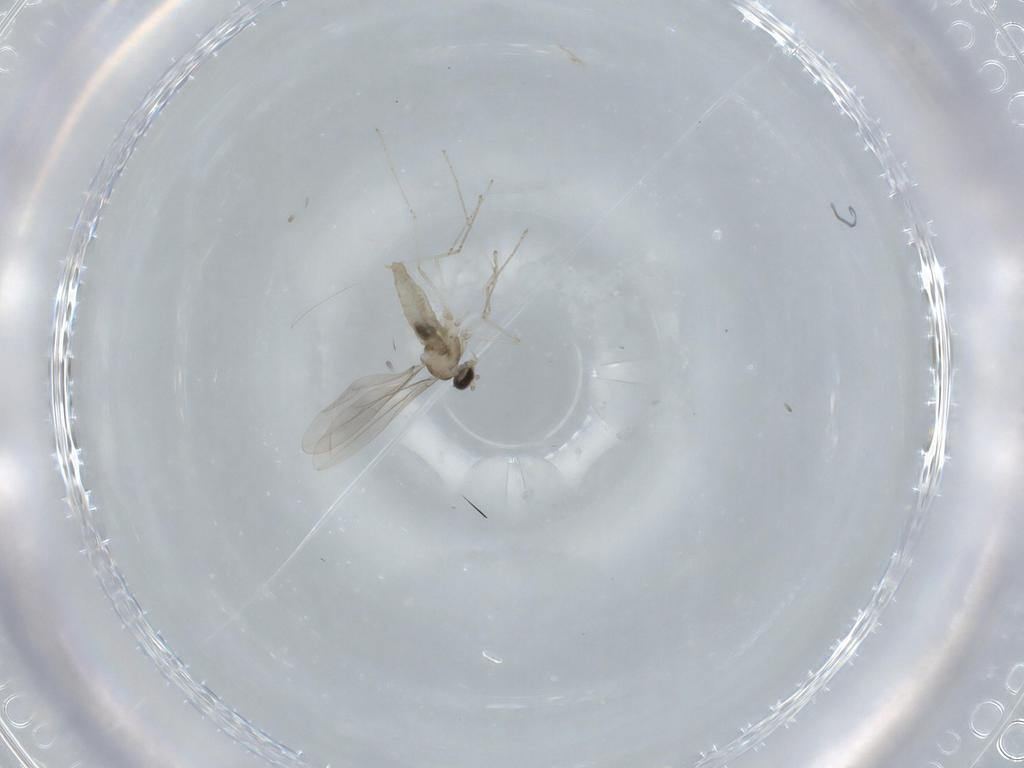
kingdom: Animalia
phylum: Arthropoda
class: Insecta
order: Diptera
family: Cecidomyiidae
